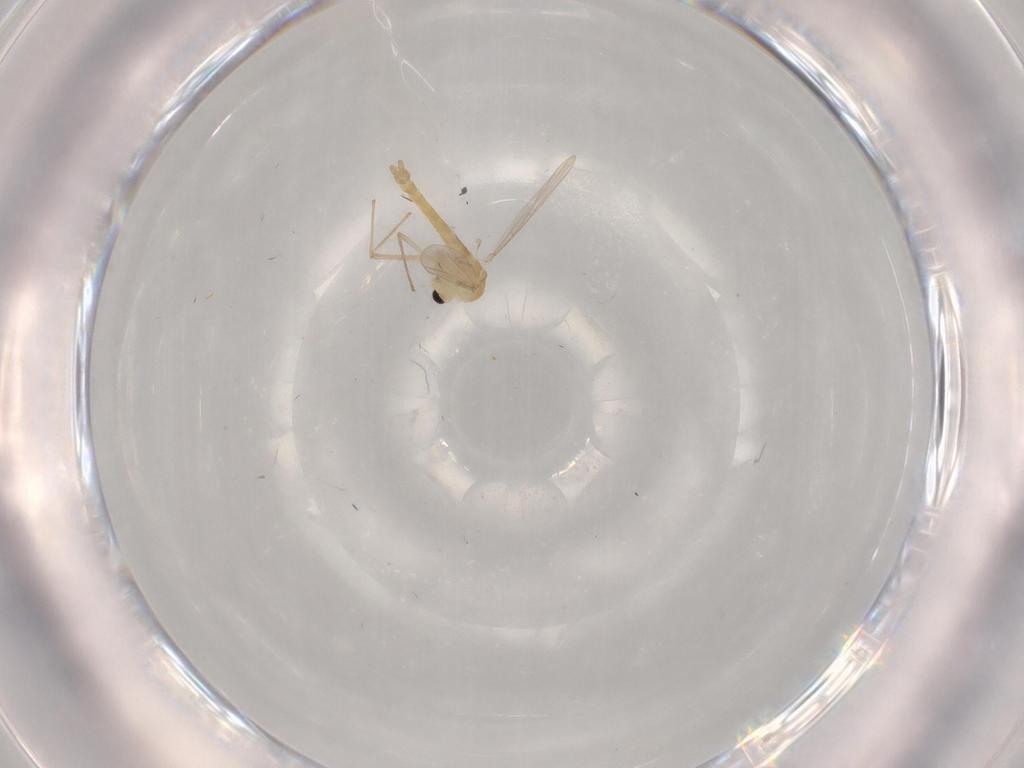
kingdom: Animalia
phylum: Arthropoda
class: Insecta
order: Diptera
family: Chironomidae
